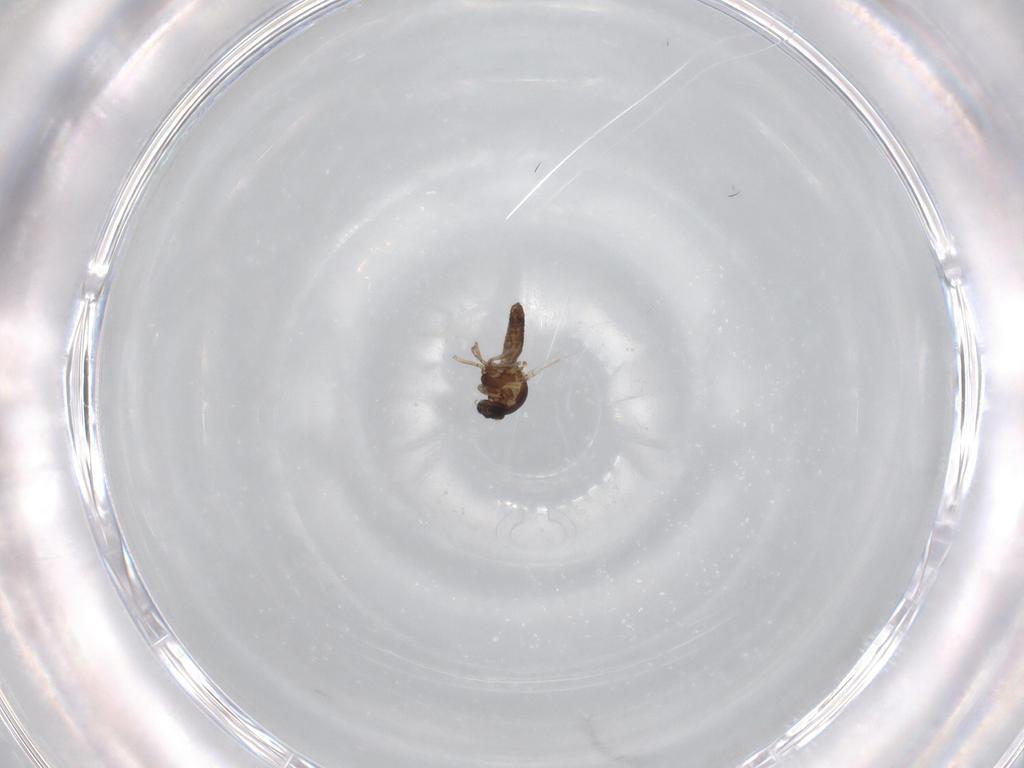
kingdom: Animalia
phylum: Arthropoda
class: Insecta
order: Diptera
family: Ceratopogonidae
